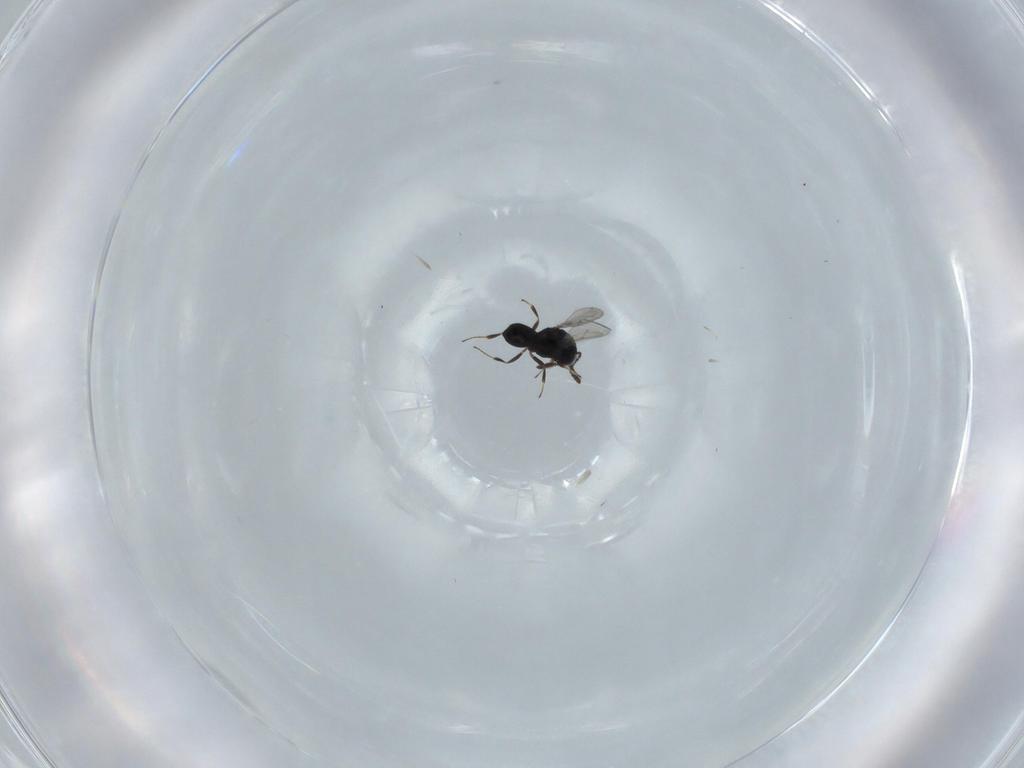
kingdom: Animalia
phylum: Arthropoda
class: Insecta
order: Hymenoptera
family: Scelionidae
